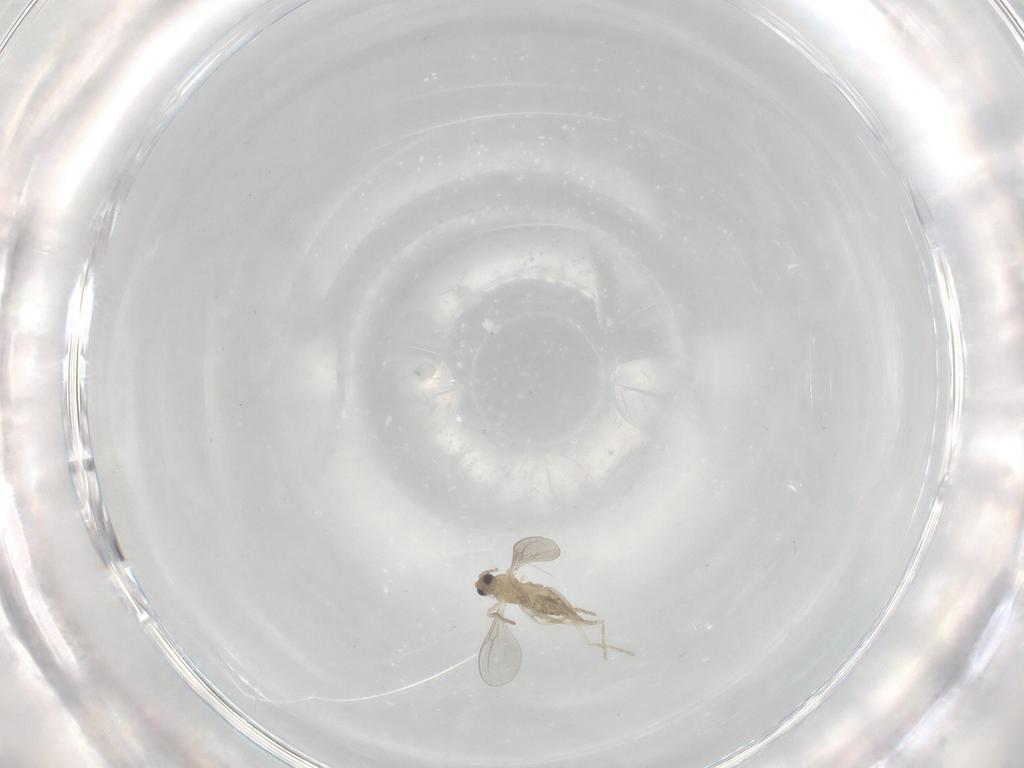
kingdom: Animalia
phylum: Arthropoda
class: Insecta
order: Diptera
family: Cecidomyiidae
